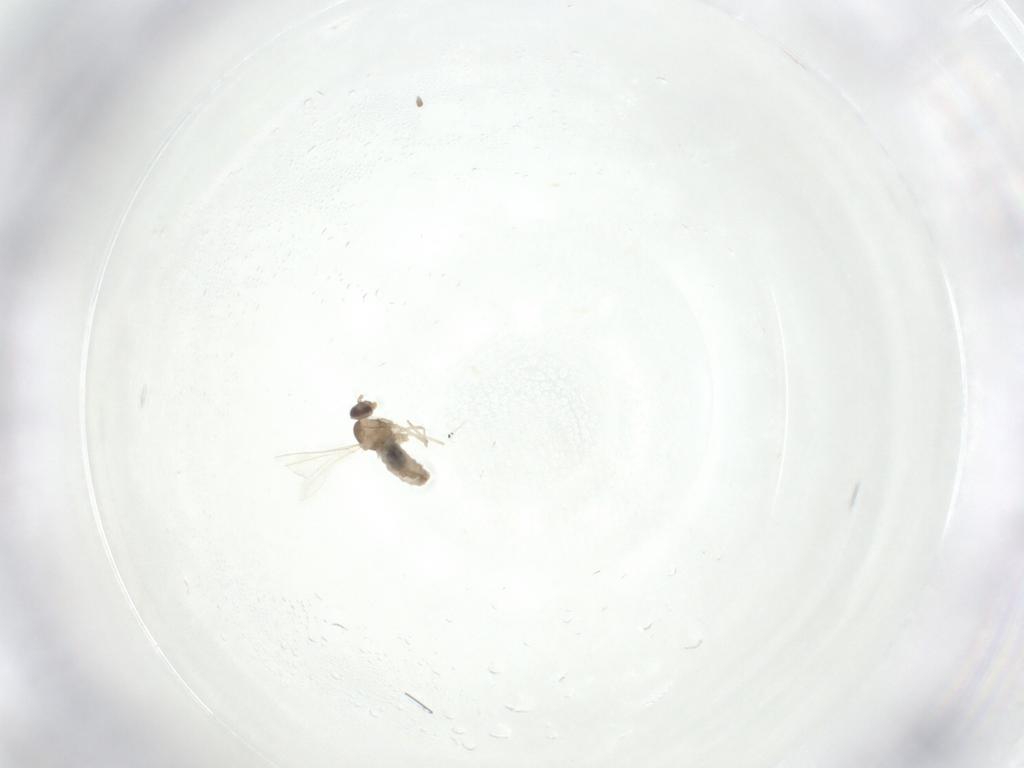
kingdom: Animalia
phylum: Arthropoda
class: Insecta
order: Diptera
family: Cecidomyiidae
